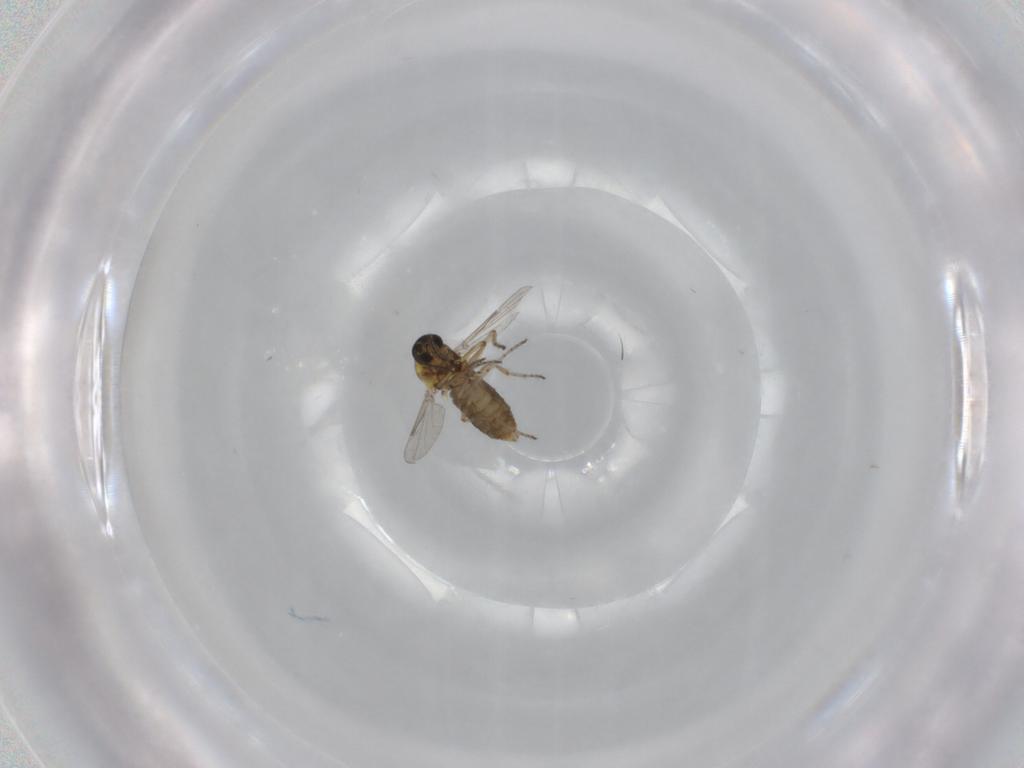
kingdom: Animalia
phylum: Arthropoda
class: Insecta
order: Diptera
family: Ceratopogonidae
